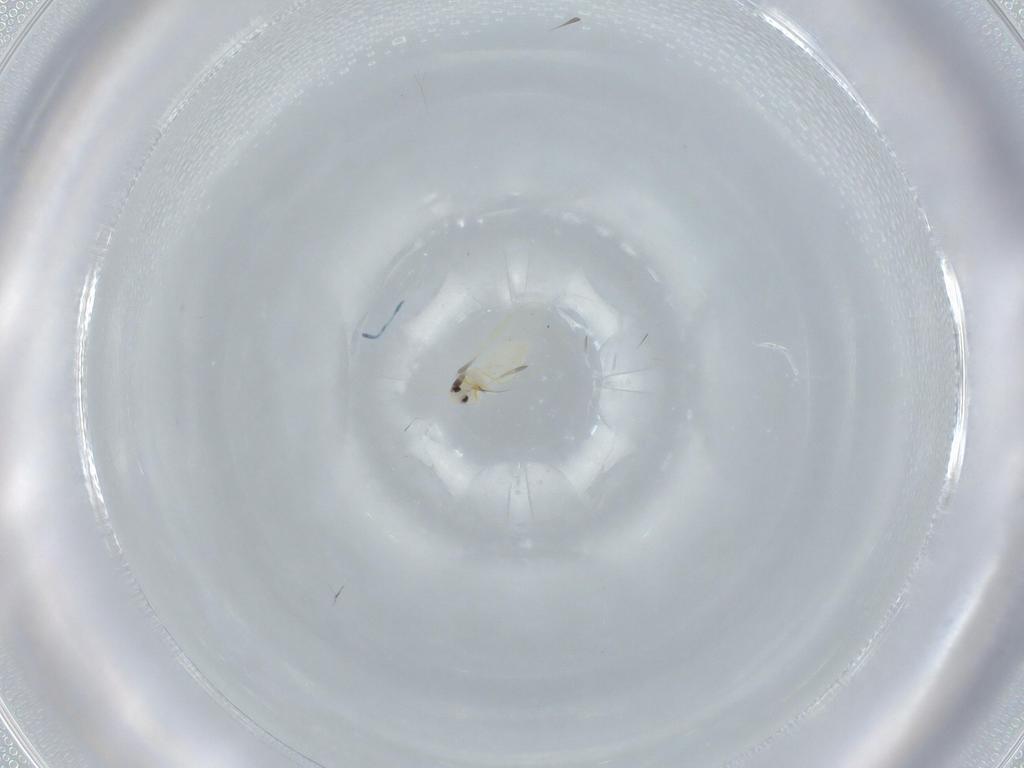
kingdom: Animalia
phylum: Arthropoda
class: Insecta
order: Hemiptera
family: Aleyrodidae
